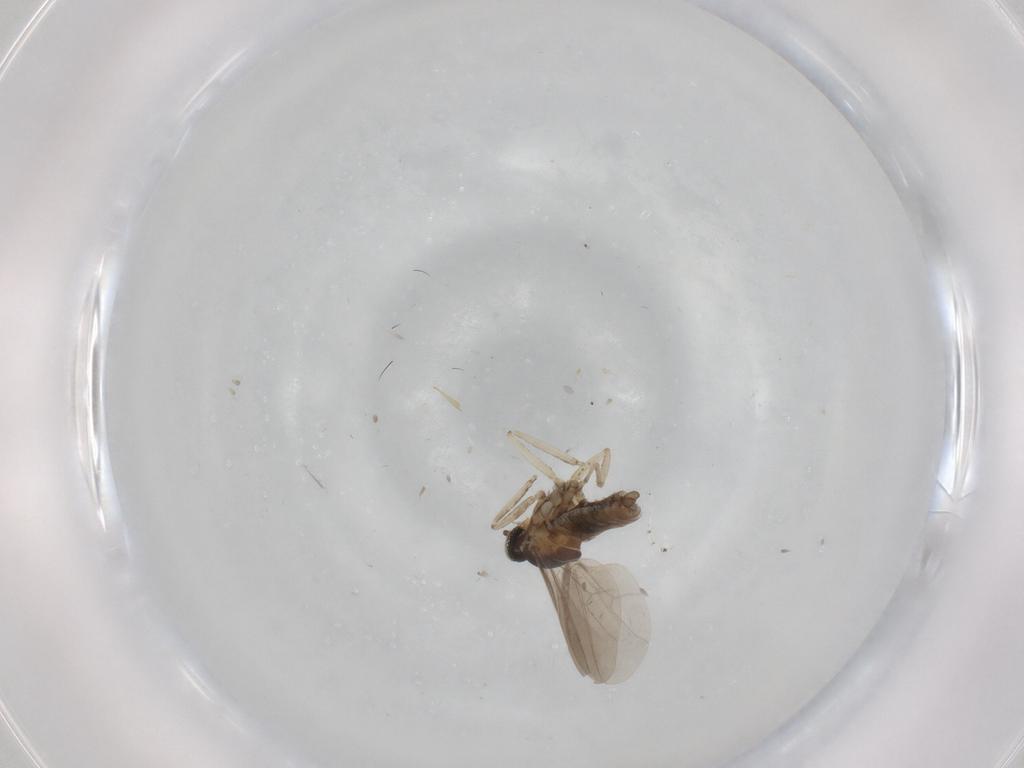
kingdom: Animalia
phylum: Arthropoda
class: Insecta
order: Diptera
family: Cecidomyiidae
